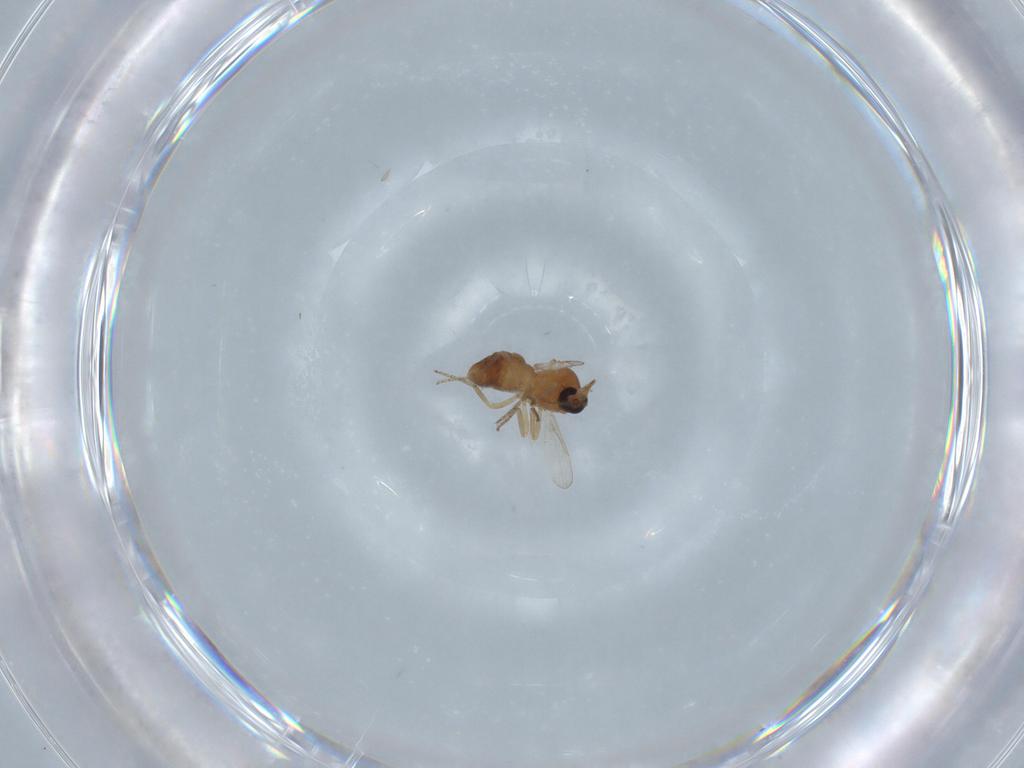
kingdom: Animalia
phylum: Arthropoda
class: Insecta
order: Diptera
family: Ceratopogonidae
